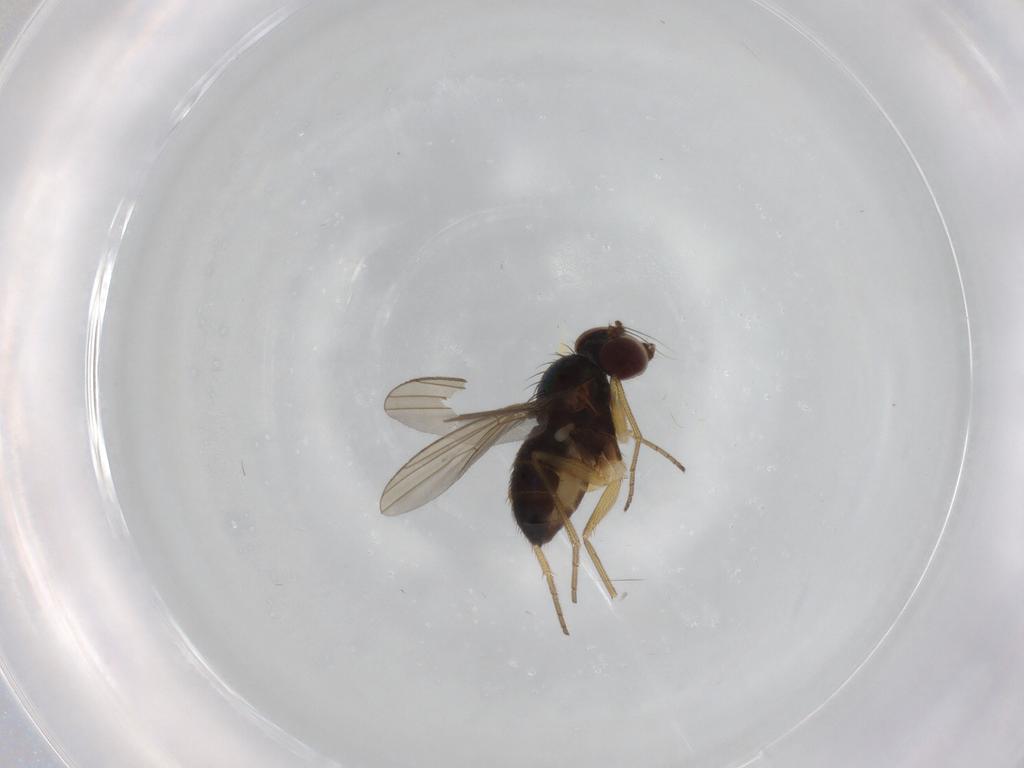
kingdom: Animalia
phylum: Arthropoda
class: Insecta
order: Diptera
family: Dolichopodidae
